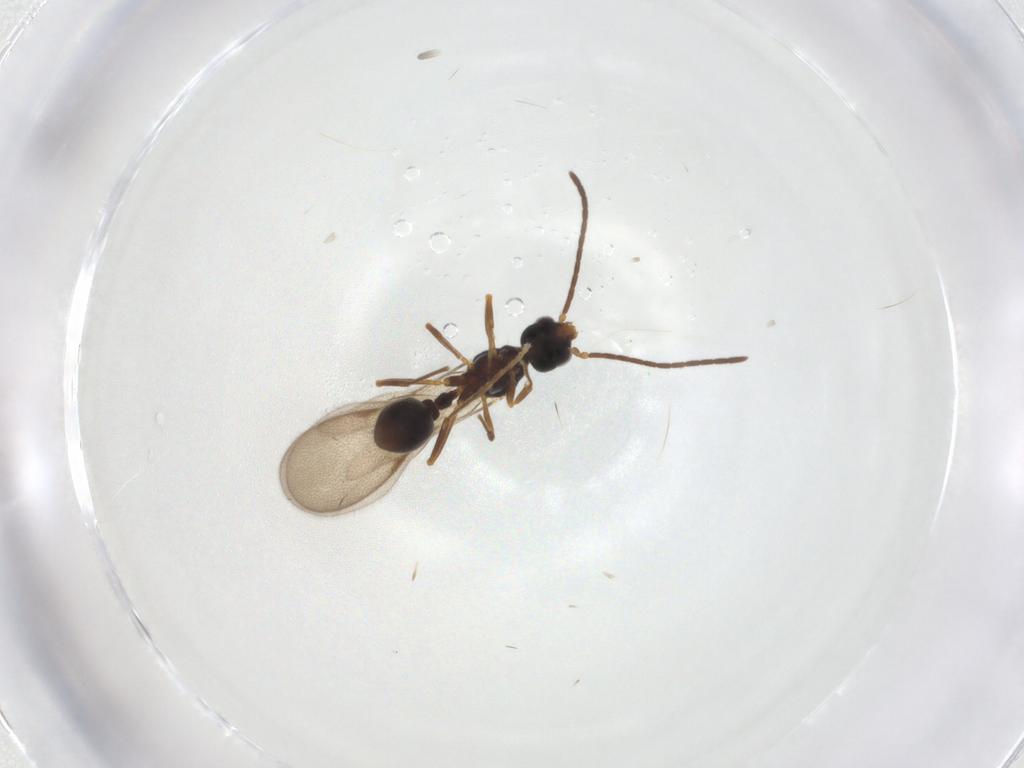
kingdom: Animalia
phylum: Arthropoda
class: Insecta
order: Hymenoptera
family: Formicidae
